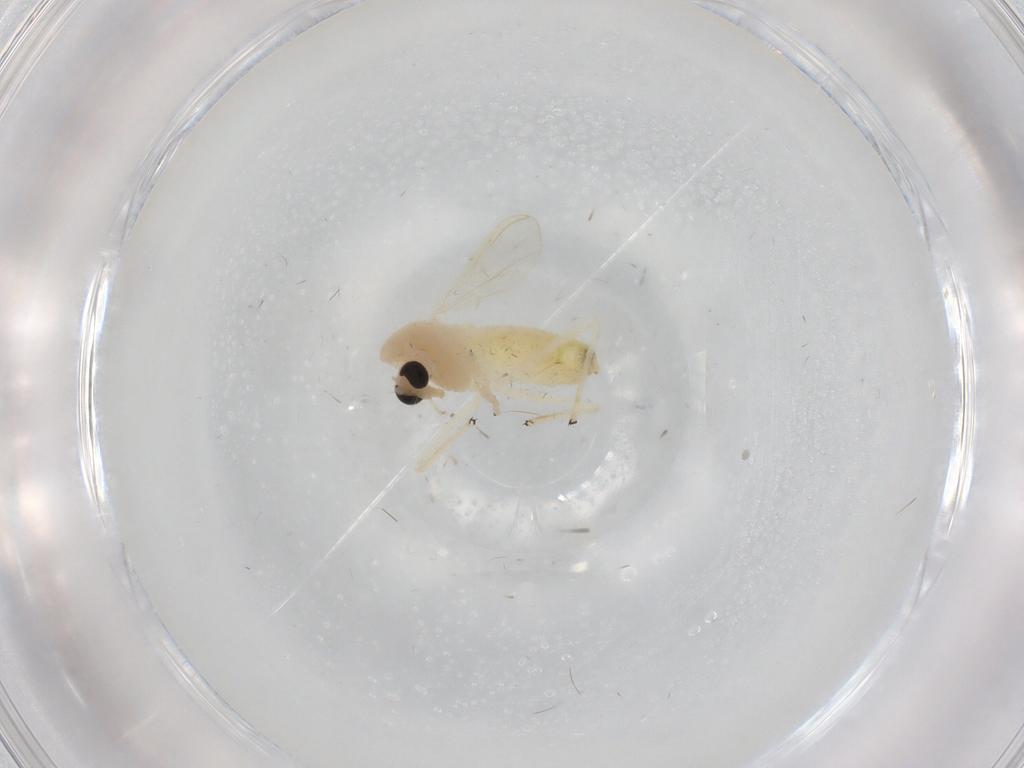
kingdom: Animalia
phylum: Arthropoda
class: Insecta
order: Diptera
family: Chironomidae
